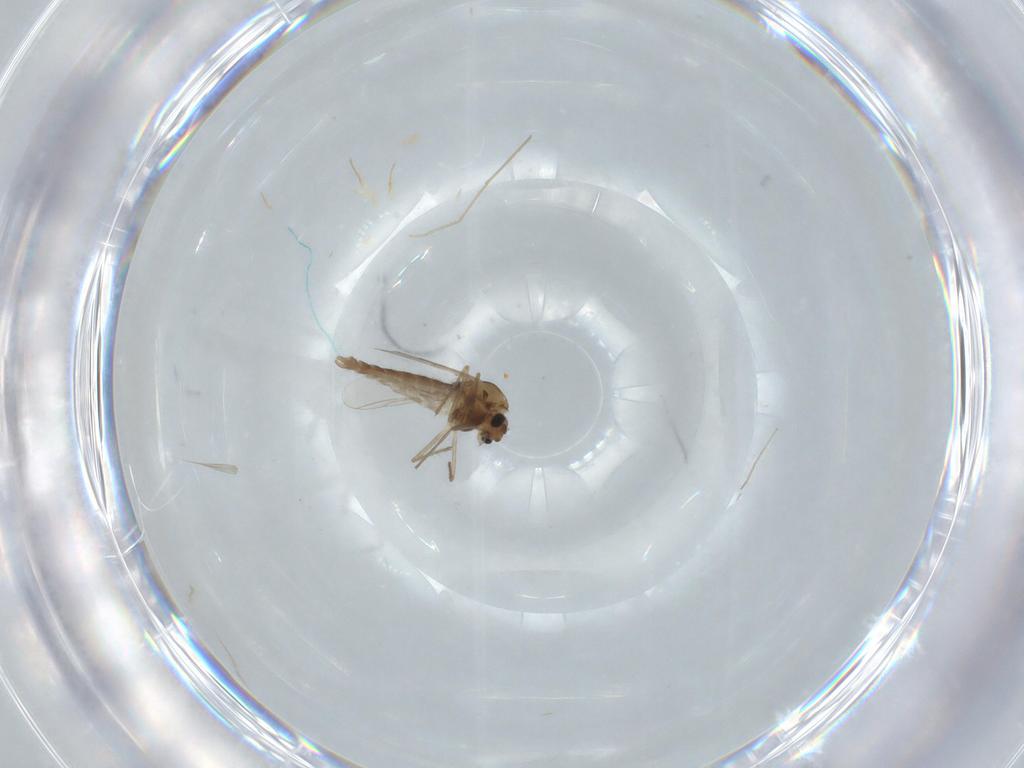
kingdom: Animalia
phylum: Arthropoda
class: Insecta
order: Diptera
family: Chironomidae
